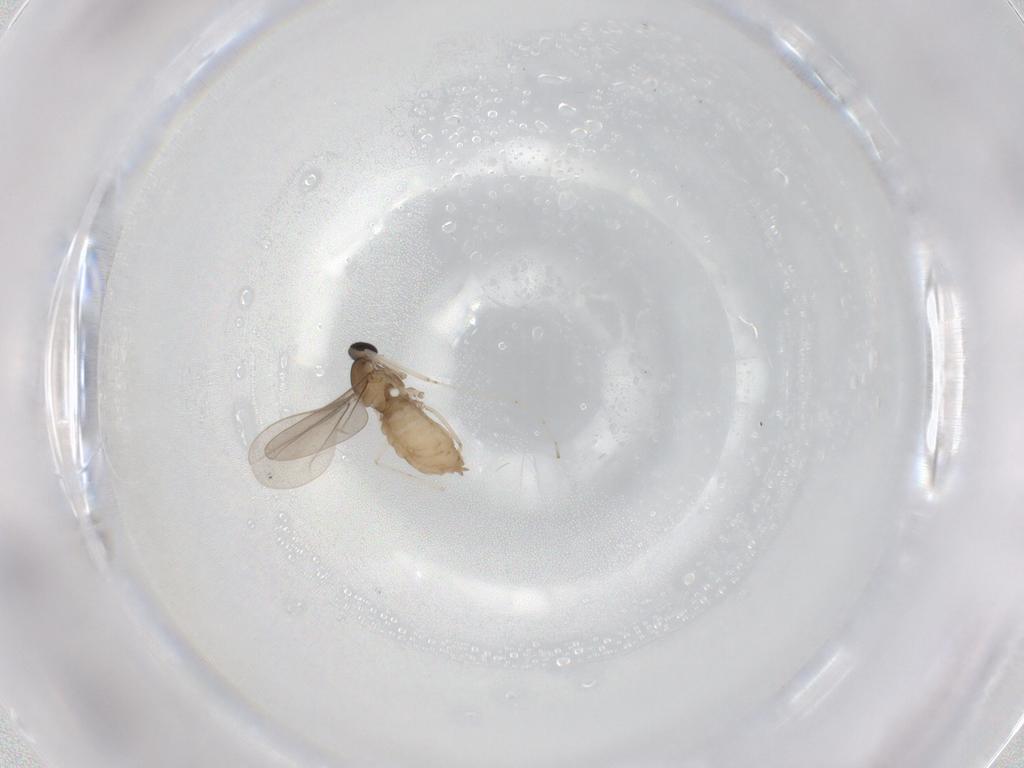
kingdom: Animalia
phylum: Arthropoda
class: Insecta
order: Diptera
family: Cecidomyiidae
